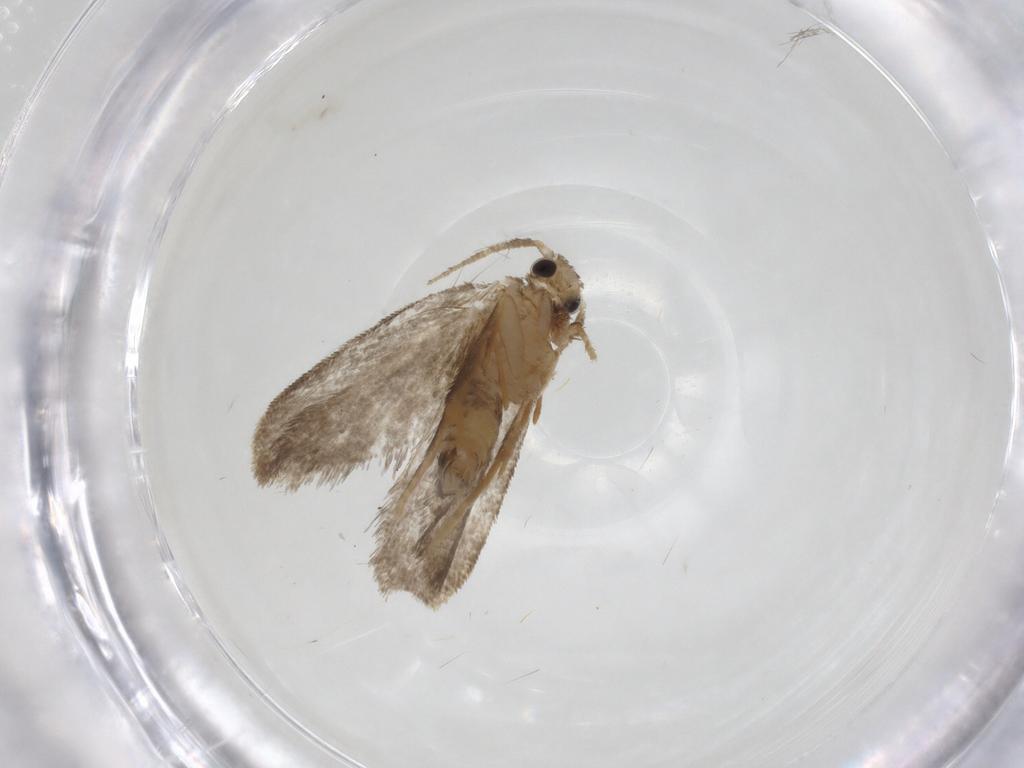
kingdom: Animalia
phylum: Arthropoda
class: Insecta
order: Lepidoptera
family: Psychidae
